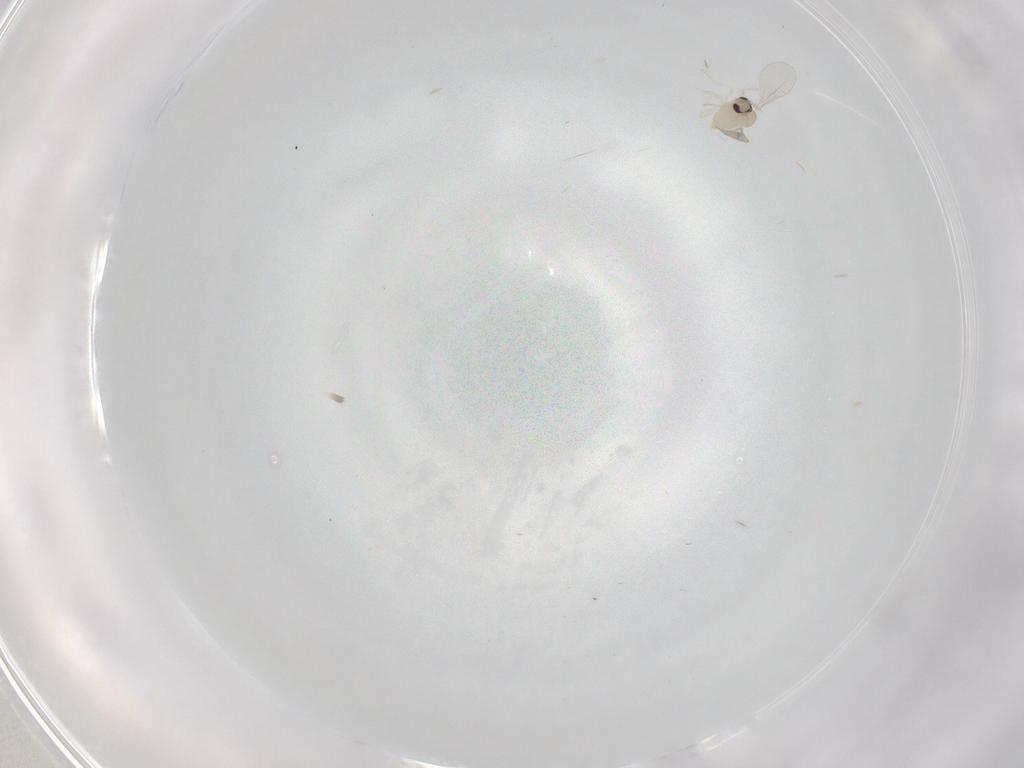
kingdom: Animalia
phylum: Arthropoda
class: Insecta
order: Diptera
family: Cecidomyiidae
